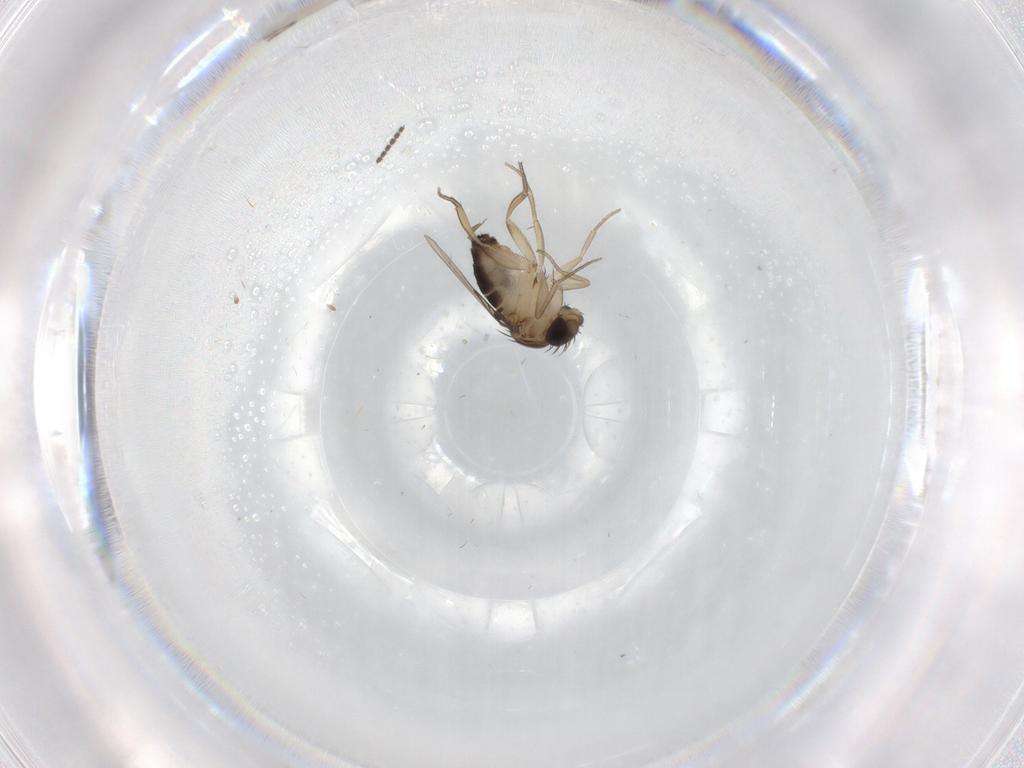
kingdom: Animalia
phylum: Arthropoda
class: Insecta
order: Diptera
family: Ceratopogonidae
